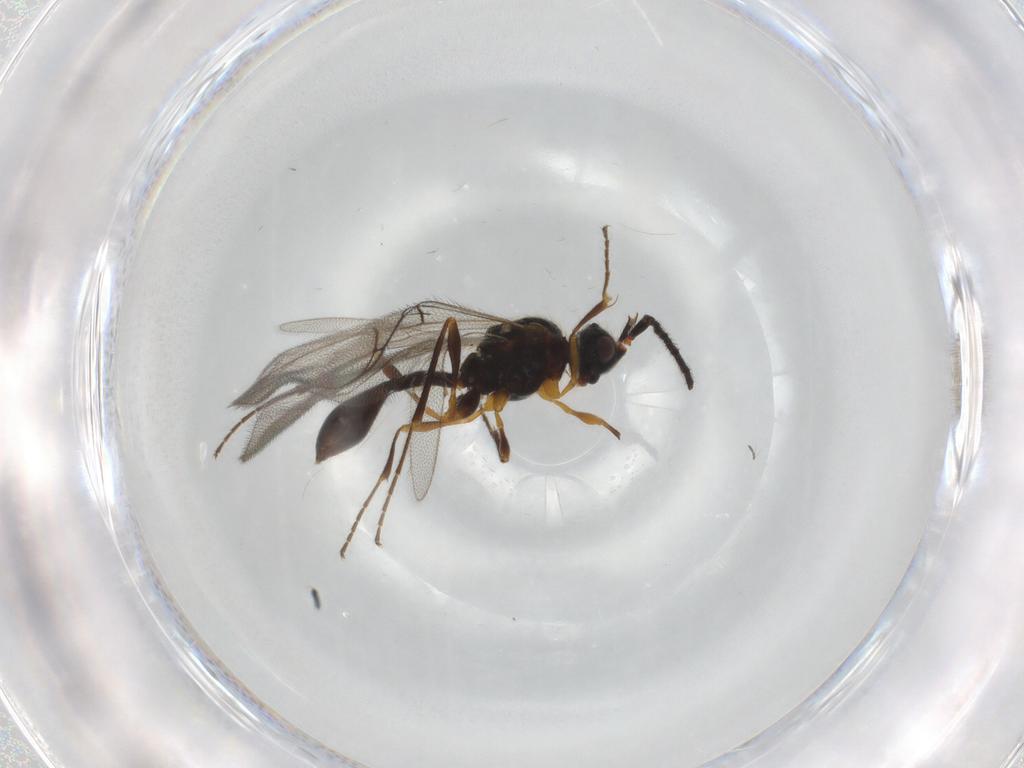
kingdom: Animalia
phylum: Arthropoda
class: Insecta
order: Hymenoptera
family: Diapriidae
